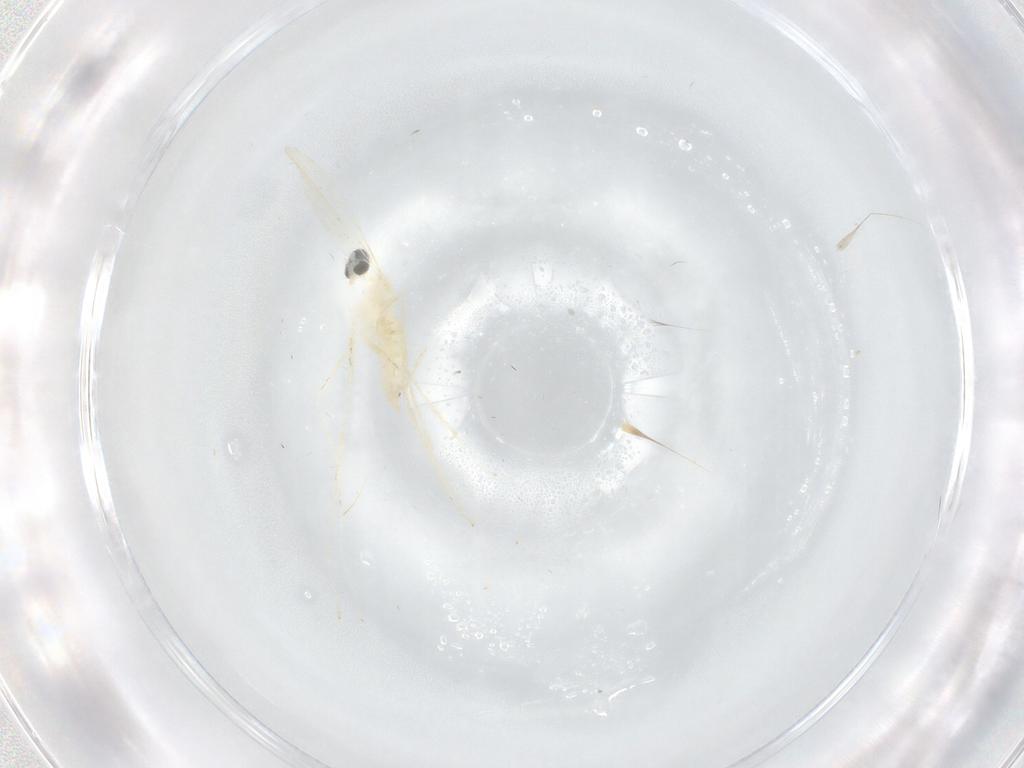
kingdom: Animalia
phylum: Arthropoda
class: Insecta
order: Diptera
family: Cecidomyiidae
